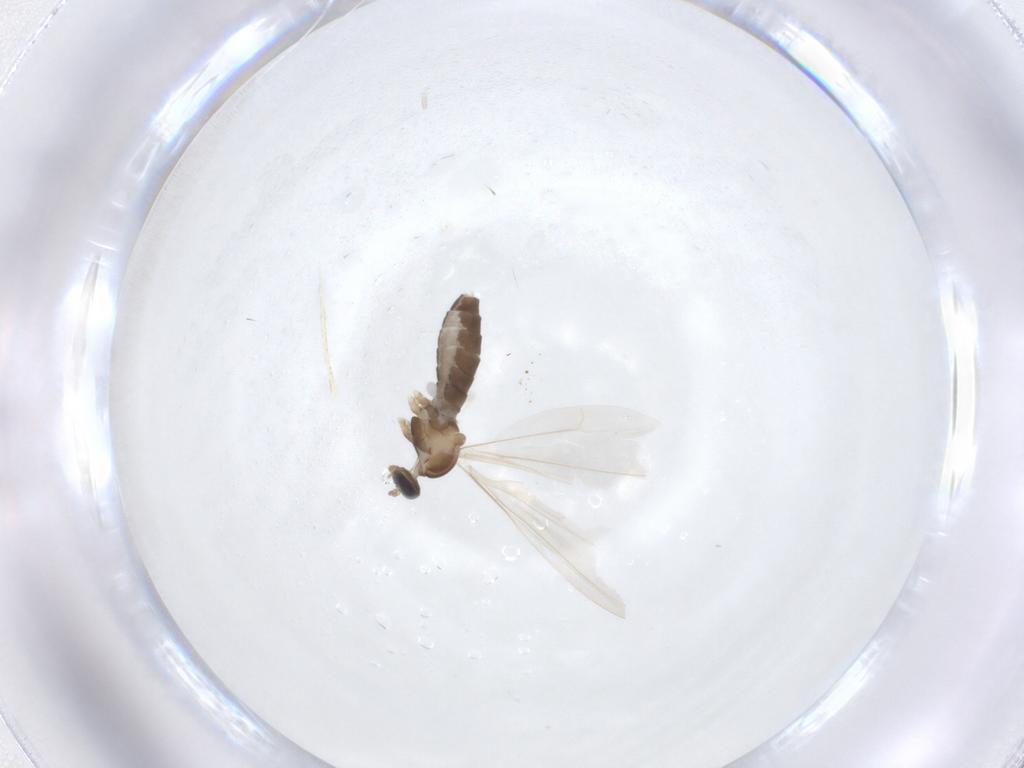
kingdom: Animalia
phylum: Arthropoda
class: Insecta
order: Diptera
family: Cecidomyiidae
